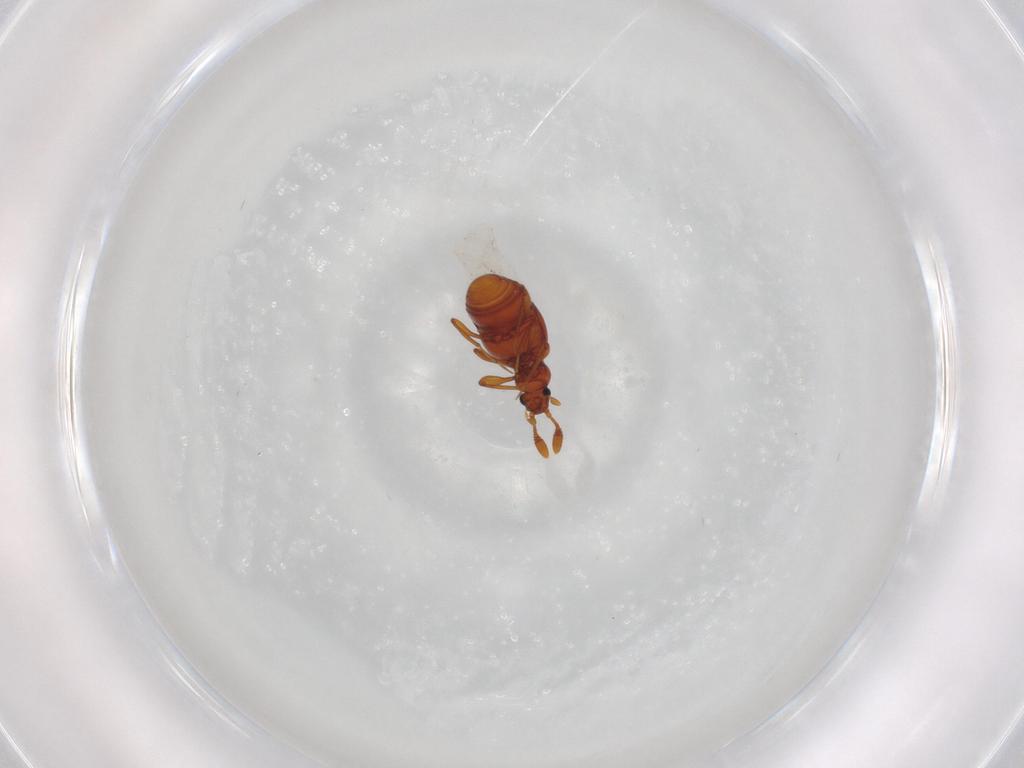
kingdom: Animalia
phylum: Arthropoda
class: Insecta
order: Coleoptera
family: Staphylinidae
